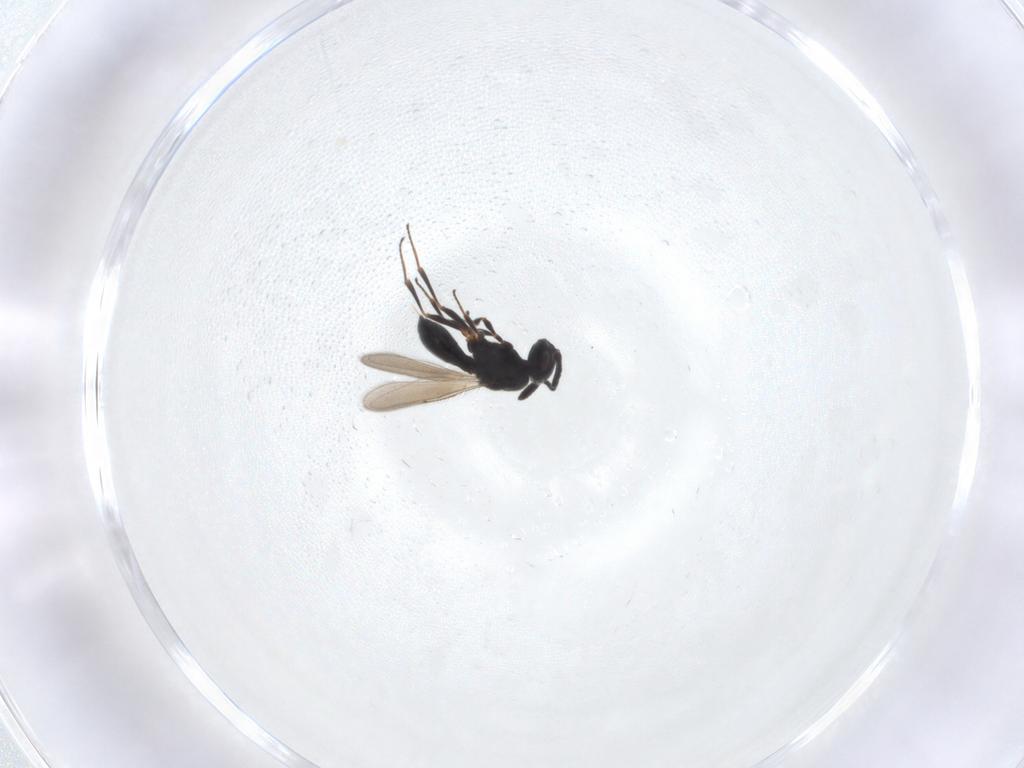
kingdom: Animalia
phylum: Arthropoda
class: Insecta
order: Hymenoptera
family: Scelionidae
